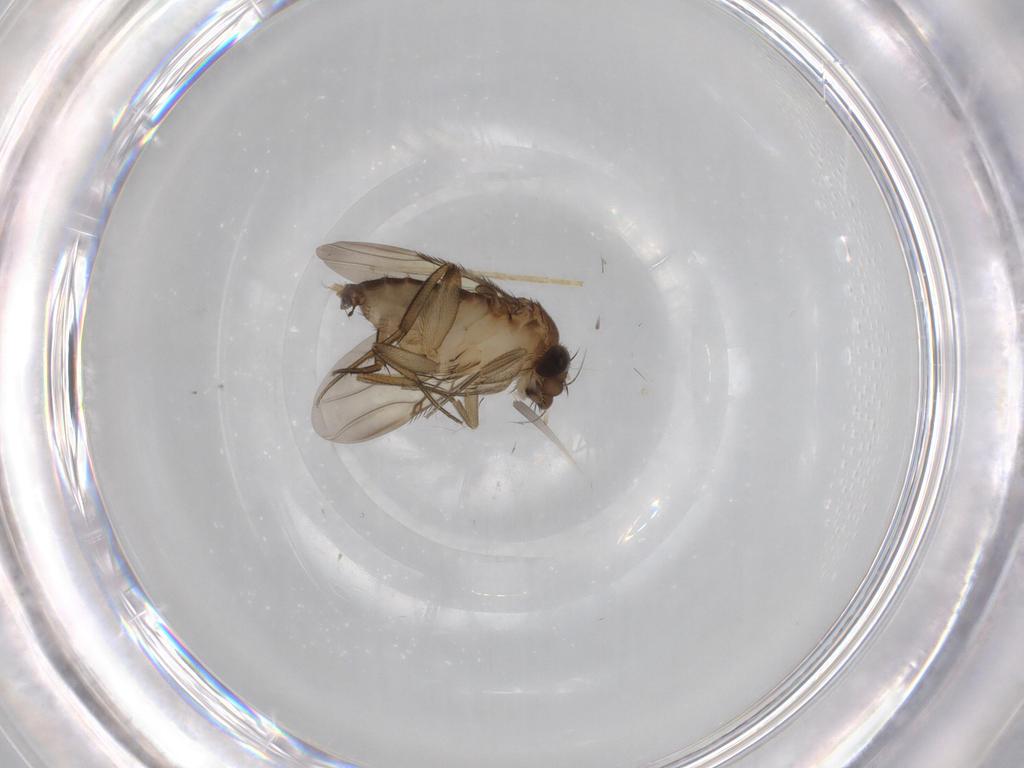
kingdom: Animalia
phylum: Arthropoda
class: Insecta
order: Diptera
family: Phoridae
